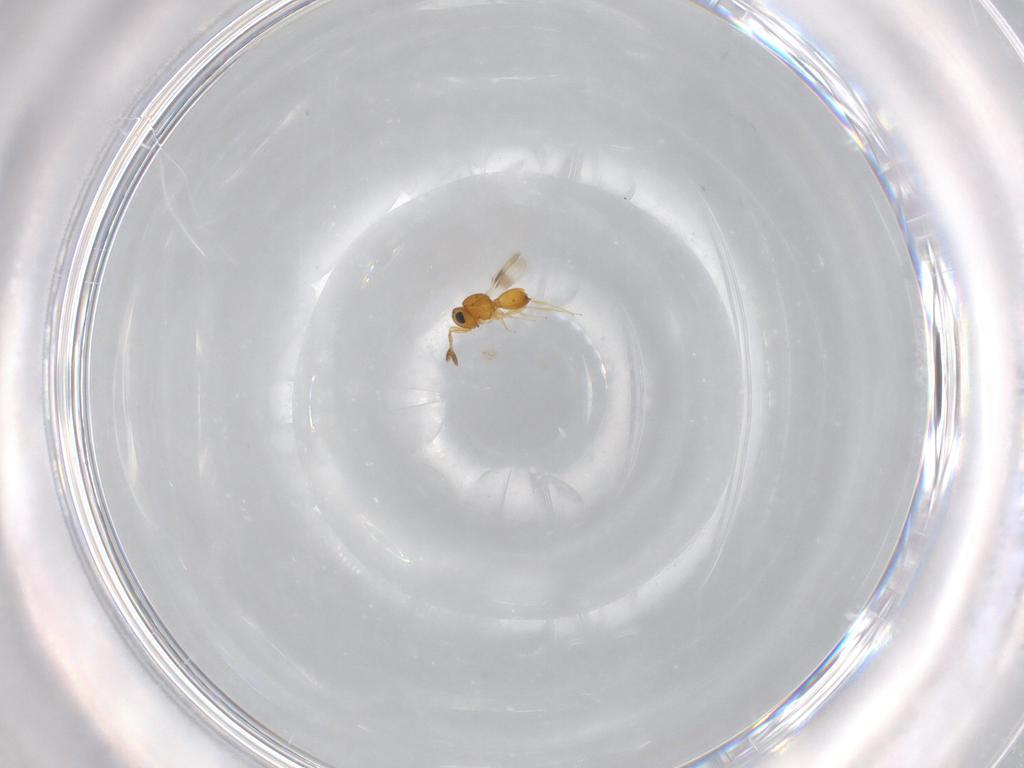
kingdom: Animalia
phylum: Arthropoda
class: Insecta
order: Hymenoptera
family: Scelionidae
